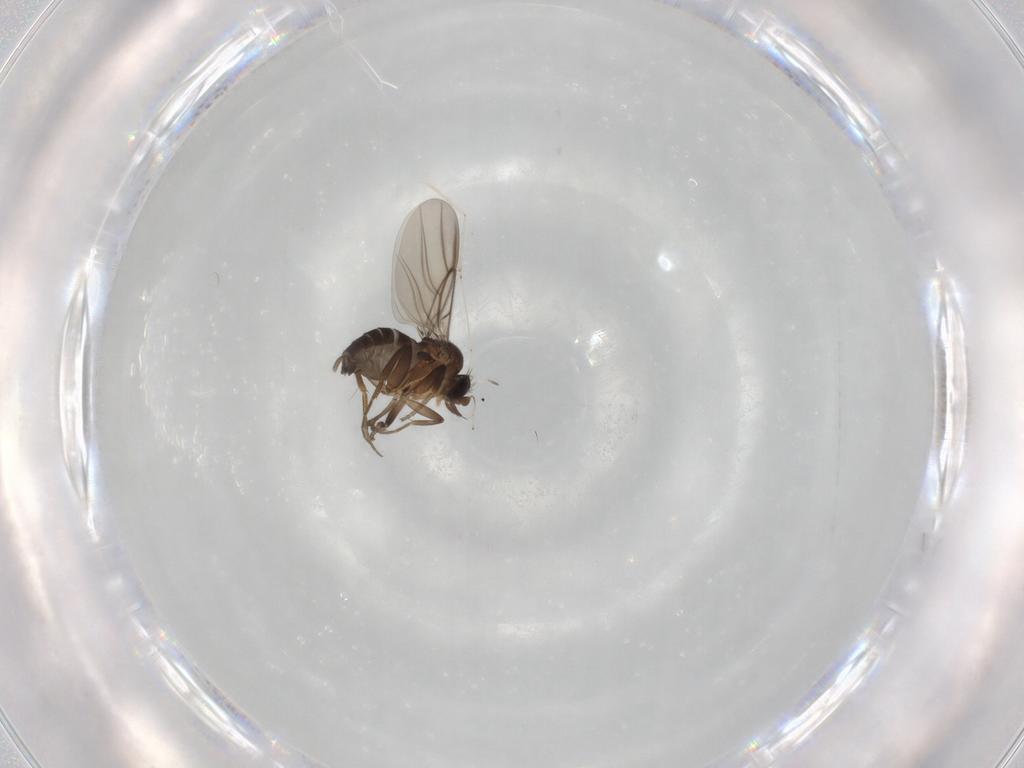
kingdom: Animalia
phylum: Arthropoda
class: Insecta
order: Diptera
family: Phoridae
